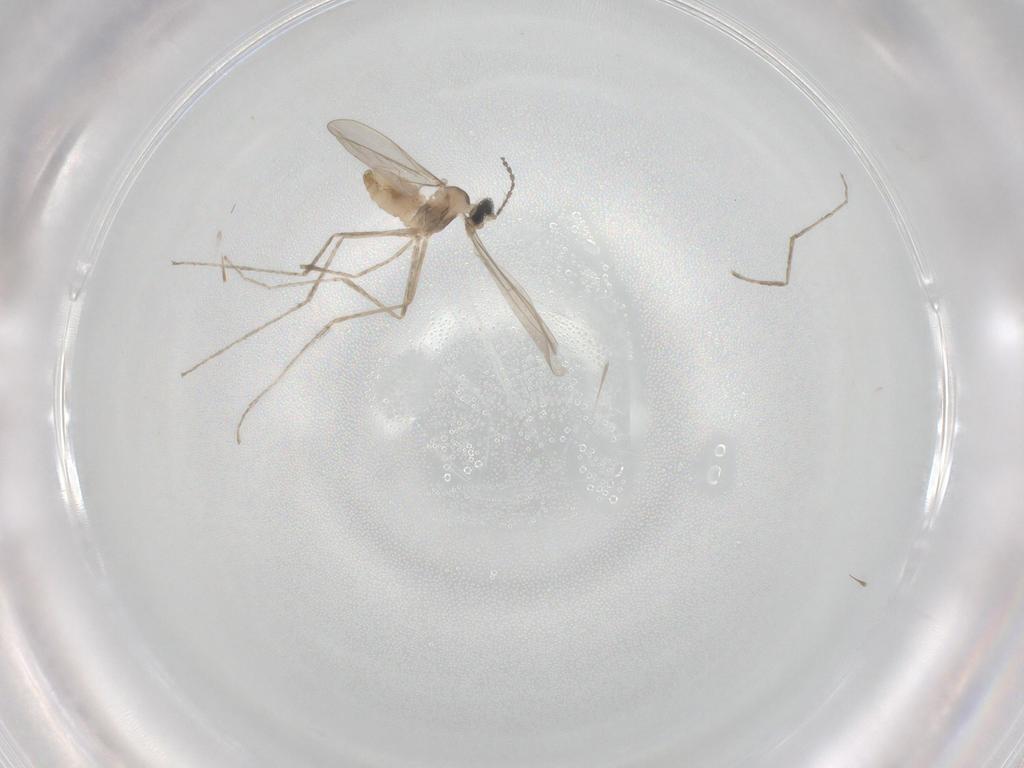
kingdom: Animalia
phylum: Arthropoda
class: Insecta
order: Diptera
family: Cecidomyiidae
